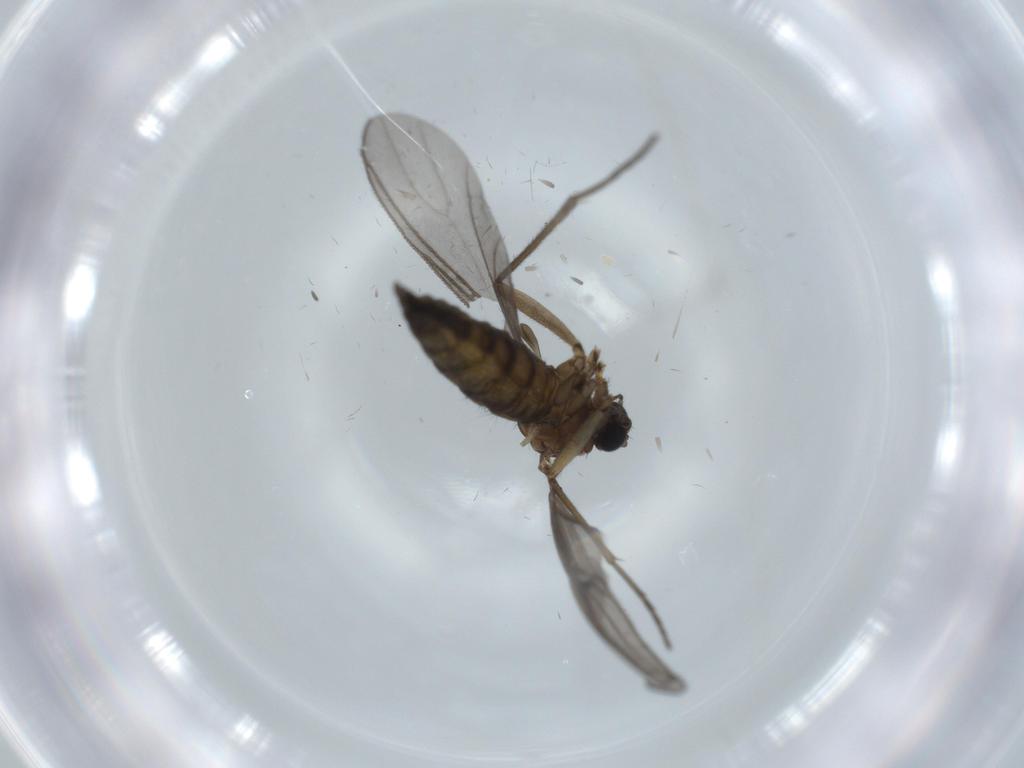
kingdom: Animalia
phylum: Arthropoda
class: Insecta
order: Diptera
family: Sciaridae
